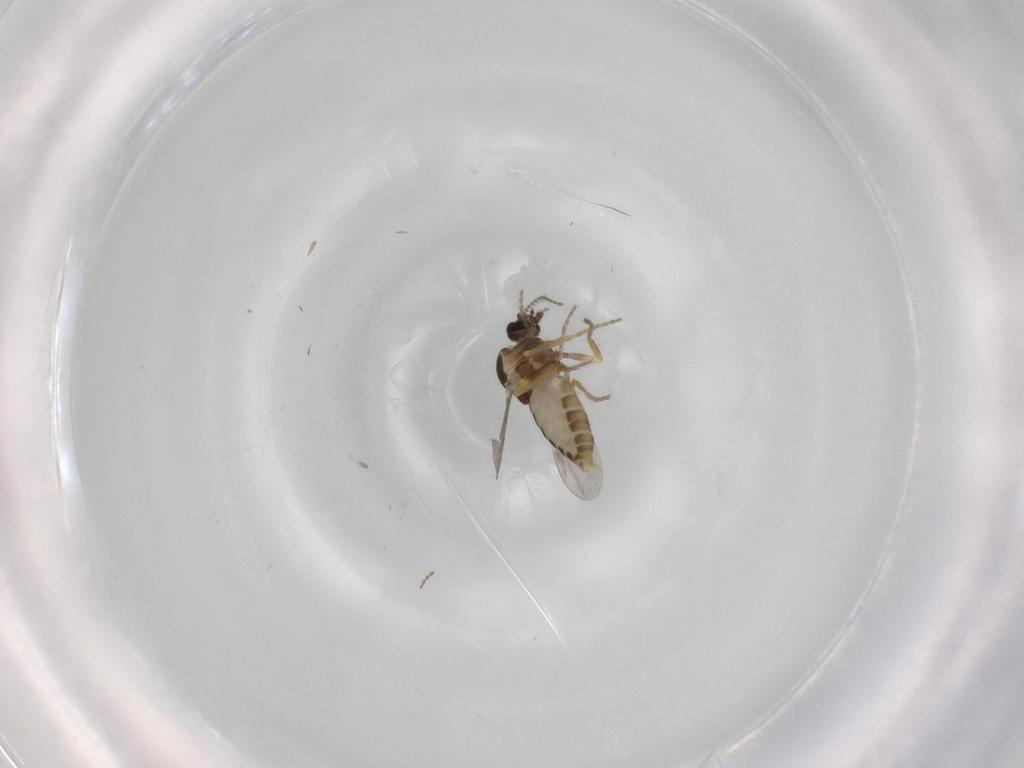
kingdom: Animalia
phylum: Arthropoda
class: Insecta
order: Diptera
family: Ceratopogonidae
